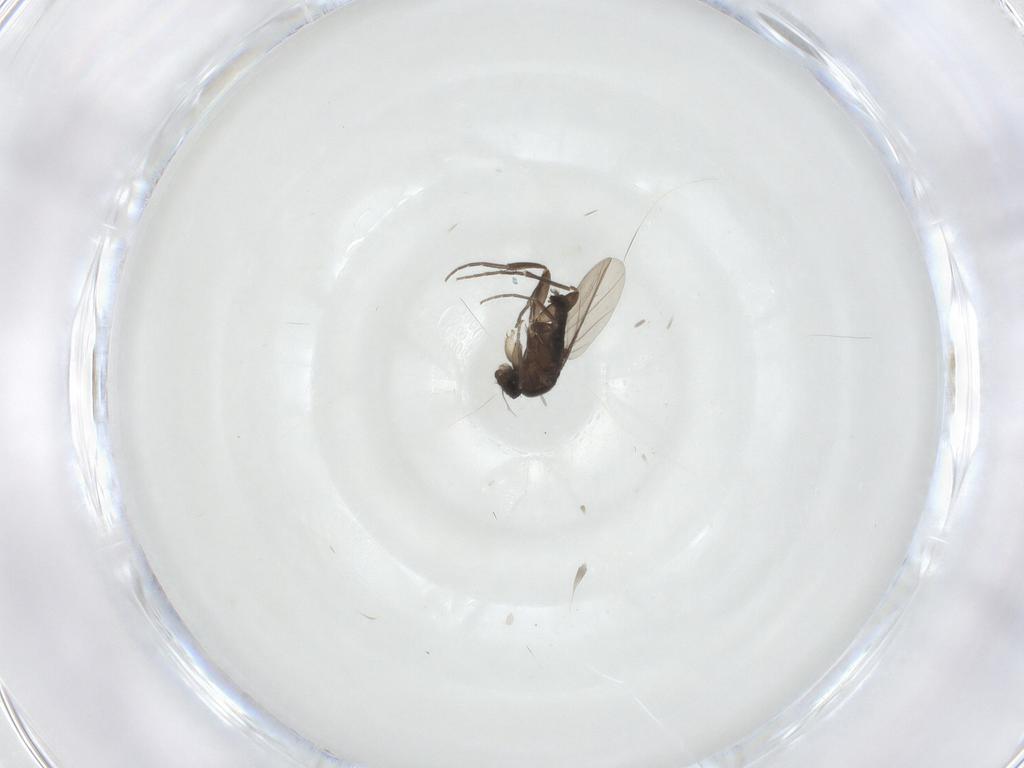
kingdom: Animalia
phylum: Arthropoda
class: Insecta
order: Diptera
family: Phoridae
